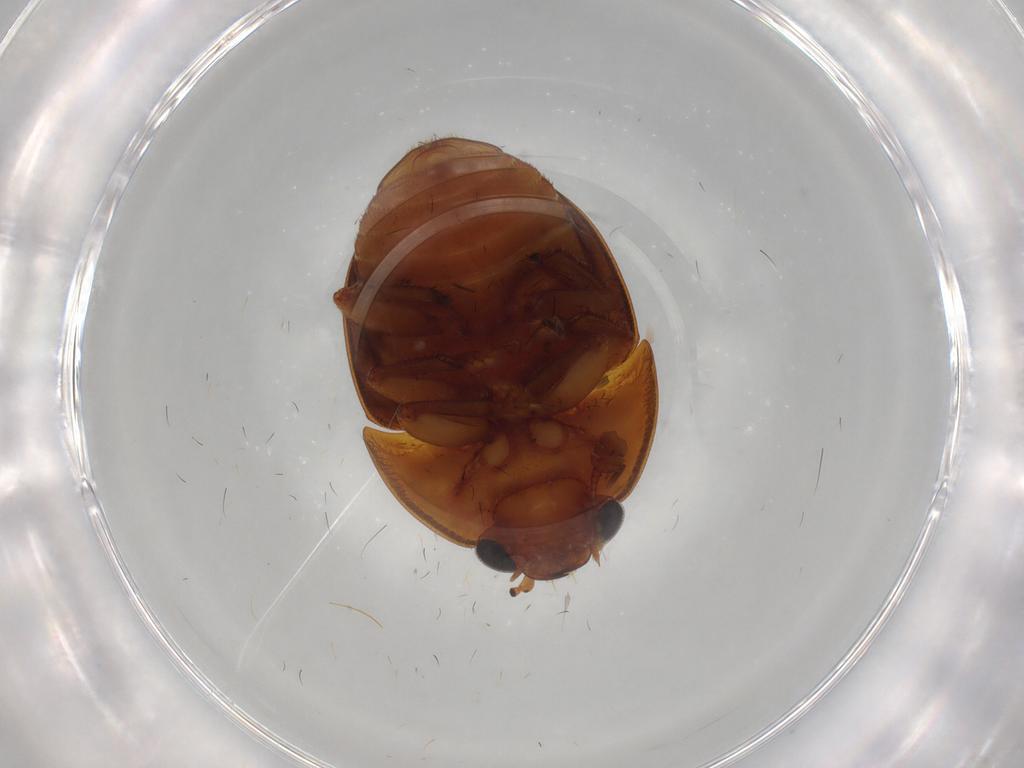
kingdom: Animalia
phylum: Arthropoda
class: Insecta
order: Coleoptera
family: Nitidulidae
